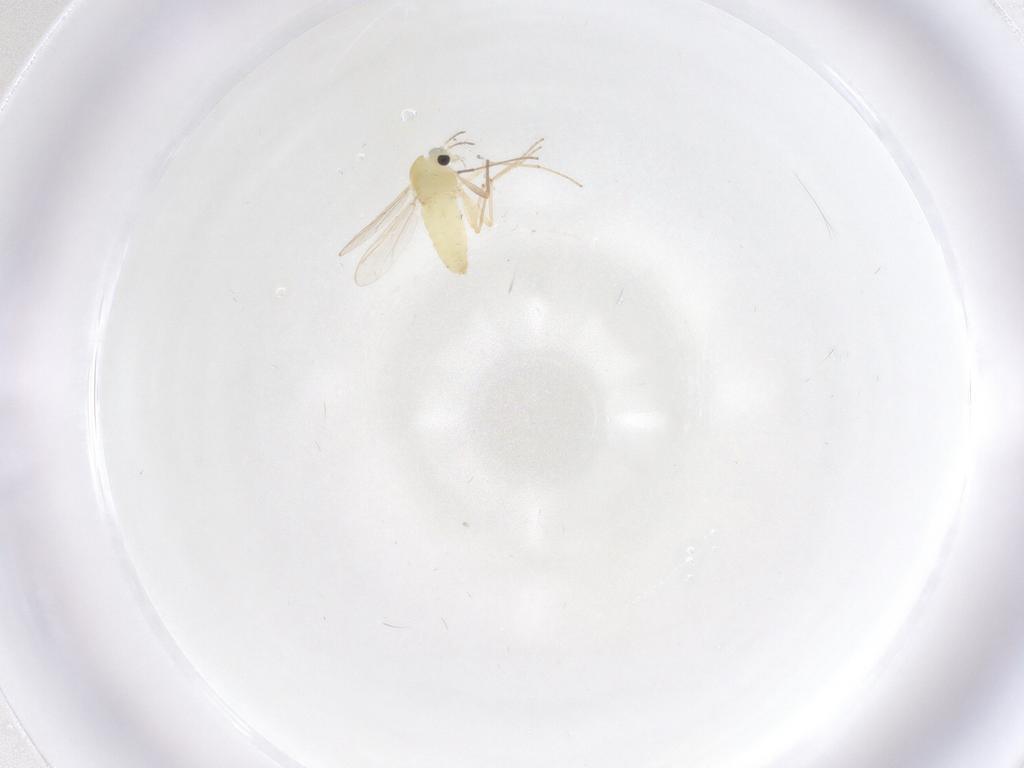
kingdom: Animalia
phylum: Arthropoda
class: Insecta
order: Diptera
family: Chironomidae
